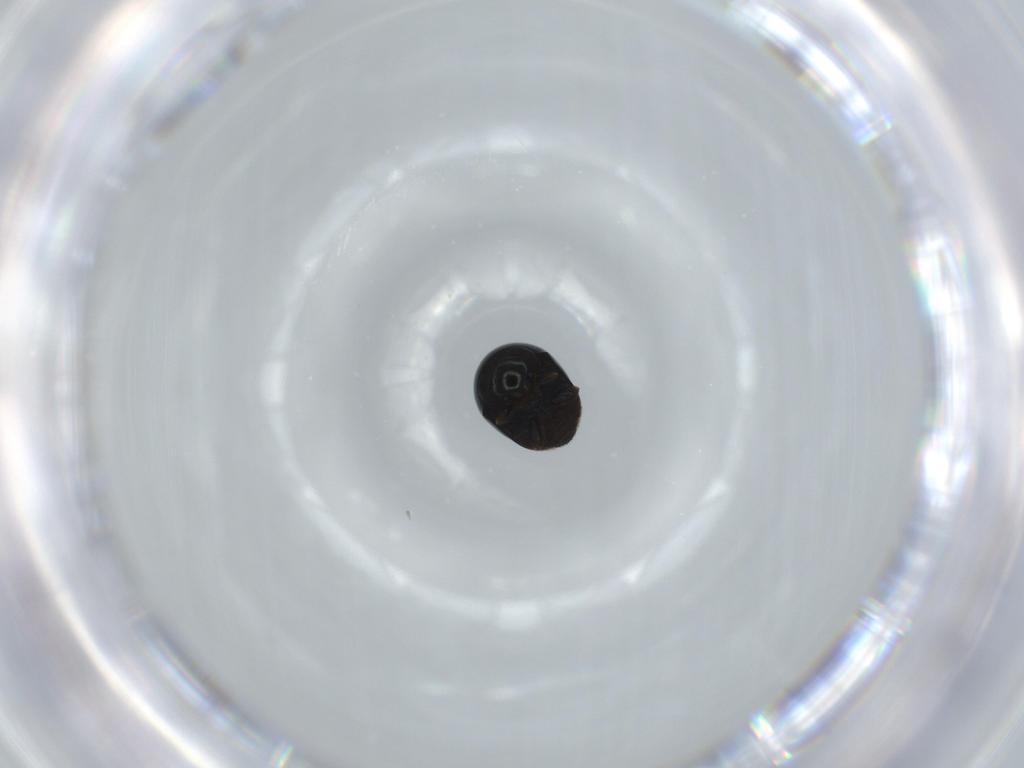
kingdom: Animalia
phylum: Arthropoda
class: Insecta
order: Coleoptera
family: Cybocephalidae
